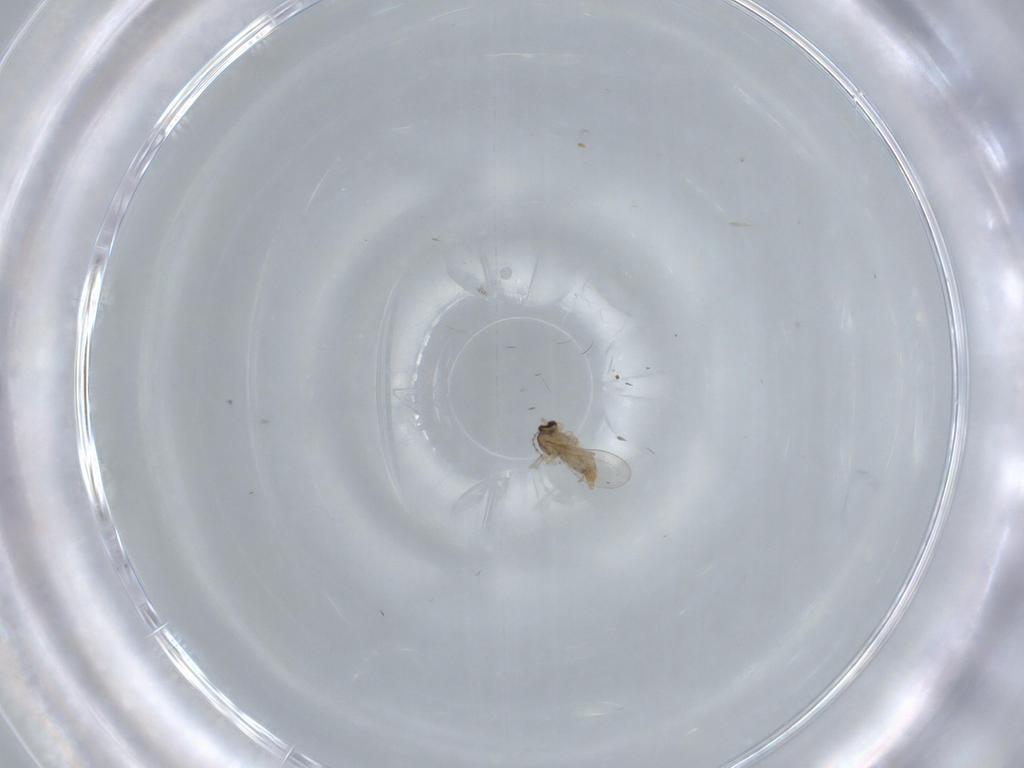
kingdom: Animalia
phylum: Arthropoda
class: Insecta
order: Diptera
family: Cecidomyiidae
